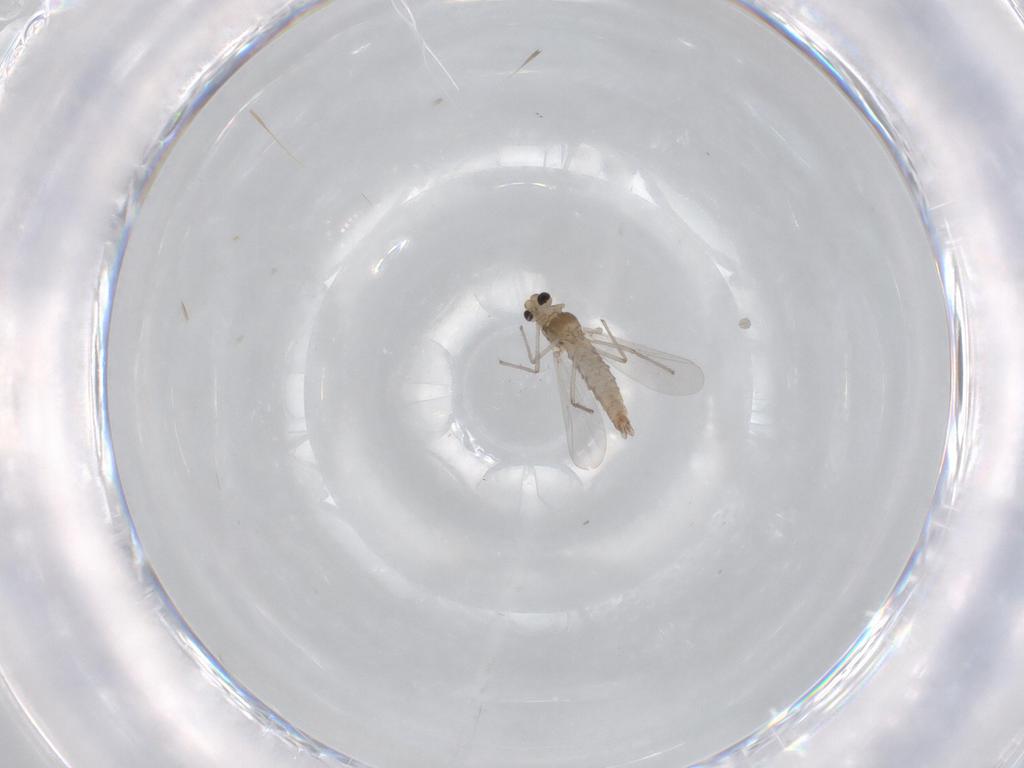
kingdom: Animalia
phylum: Arthropoda
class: Insecta
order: Diptera
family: Chironomidae
